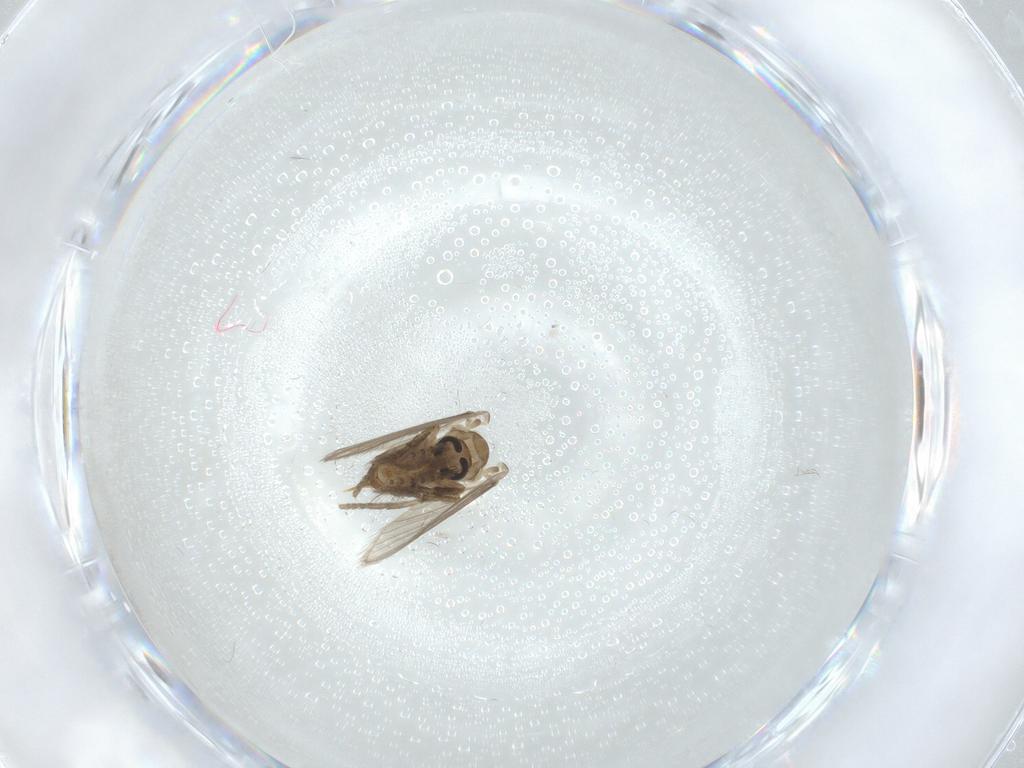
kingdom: Animalia
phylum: Arthropoda
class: Insecta
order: Diptera
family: Psychodidae
